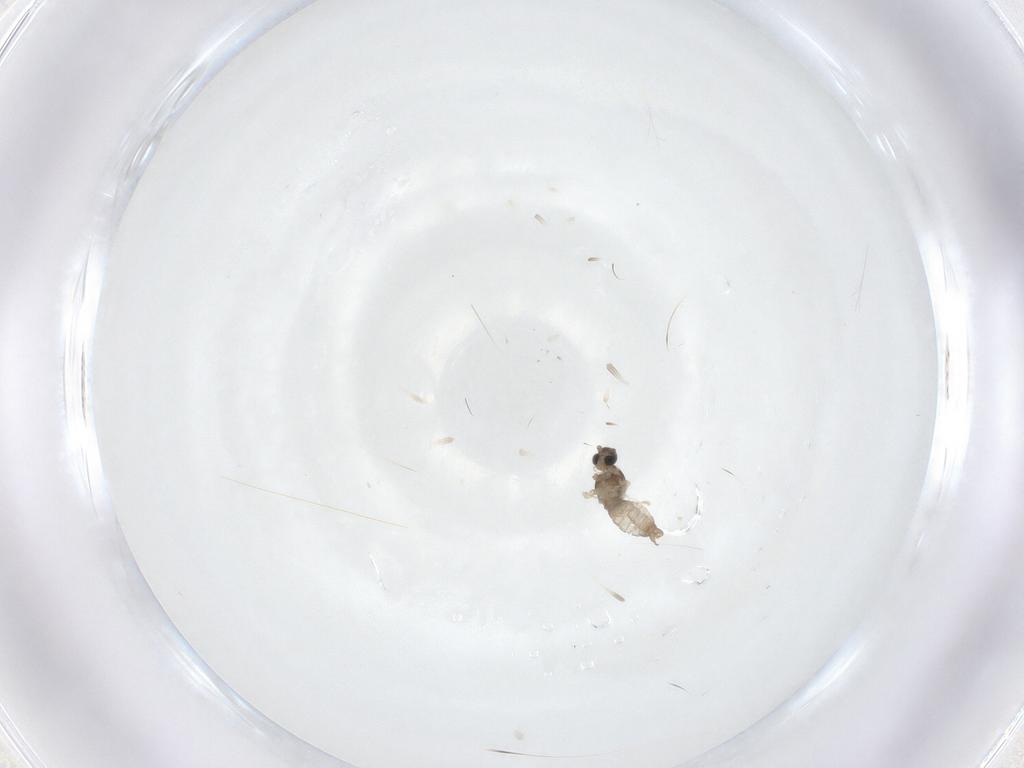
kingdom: Animalia
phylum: Arthropoda
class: Insecta
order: Diptera
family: Cecidomyiidae
